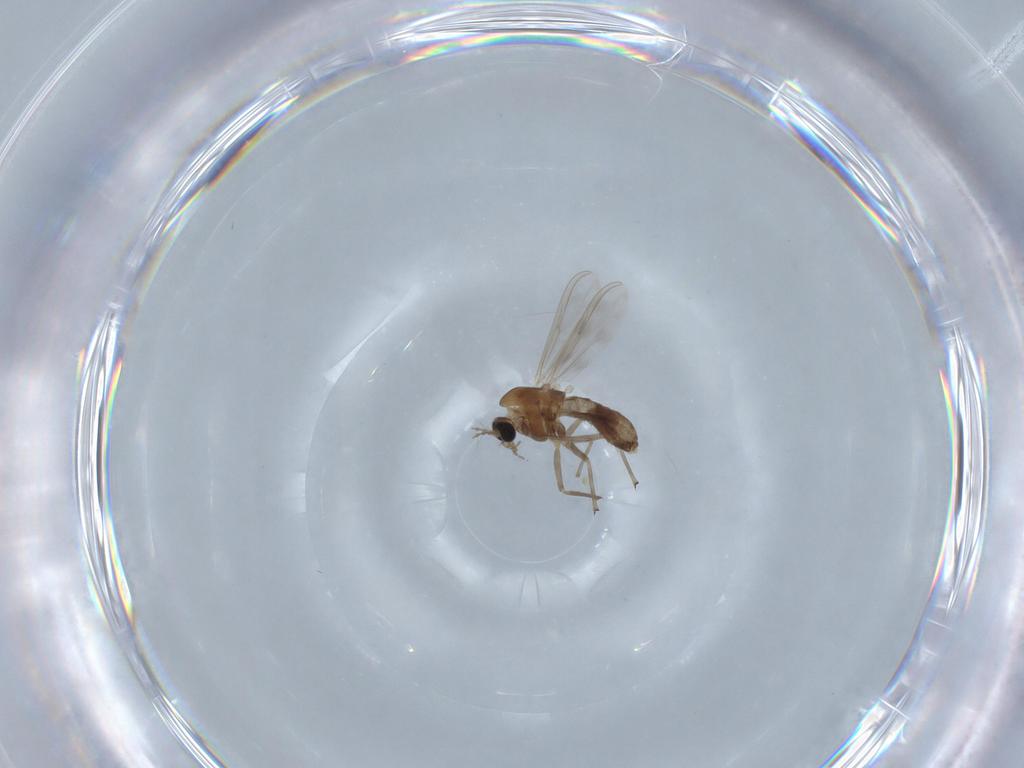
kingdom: Animalia
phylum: Arthropoda
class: Insecta
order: Diptera
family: Chironomidae
